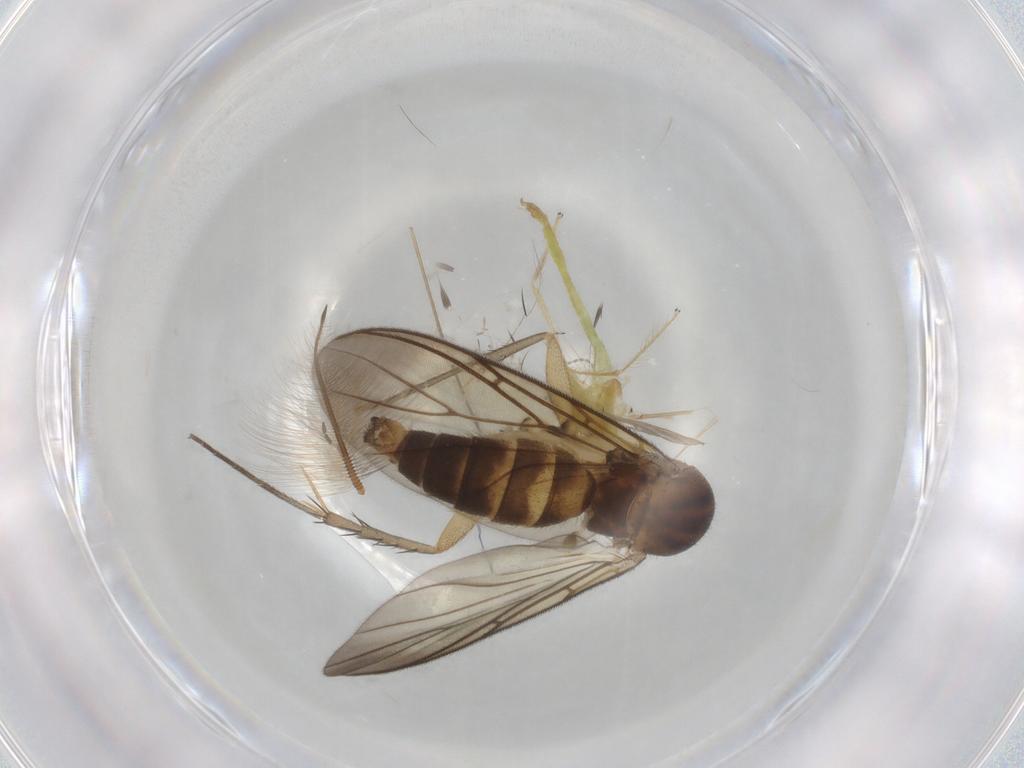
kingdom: Animalia
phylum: Arthropoda
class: Insecta
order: Diptera
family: Ceratopogonidae
